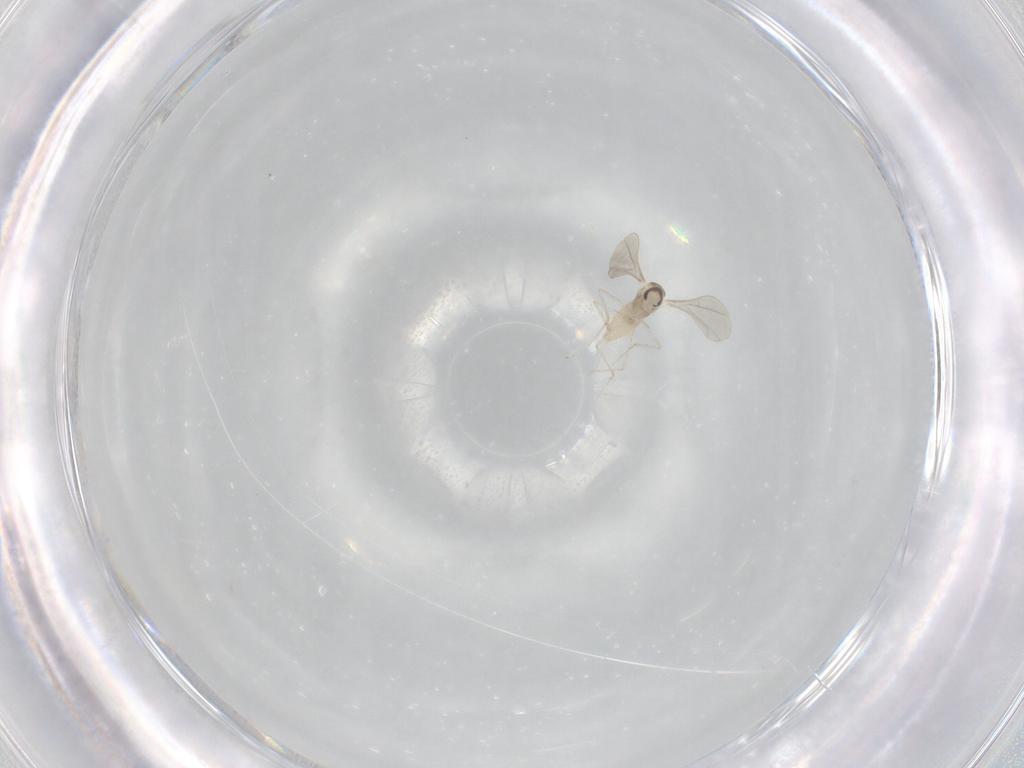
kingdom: Animalia
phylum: Arthropoda
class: Insecta
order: Diptera
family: Cecidomyiidae
